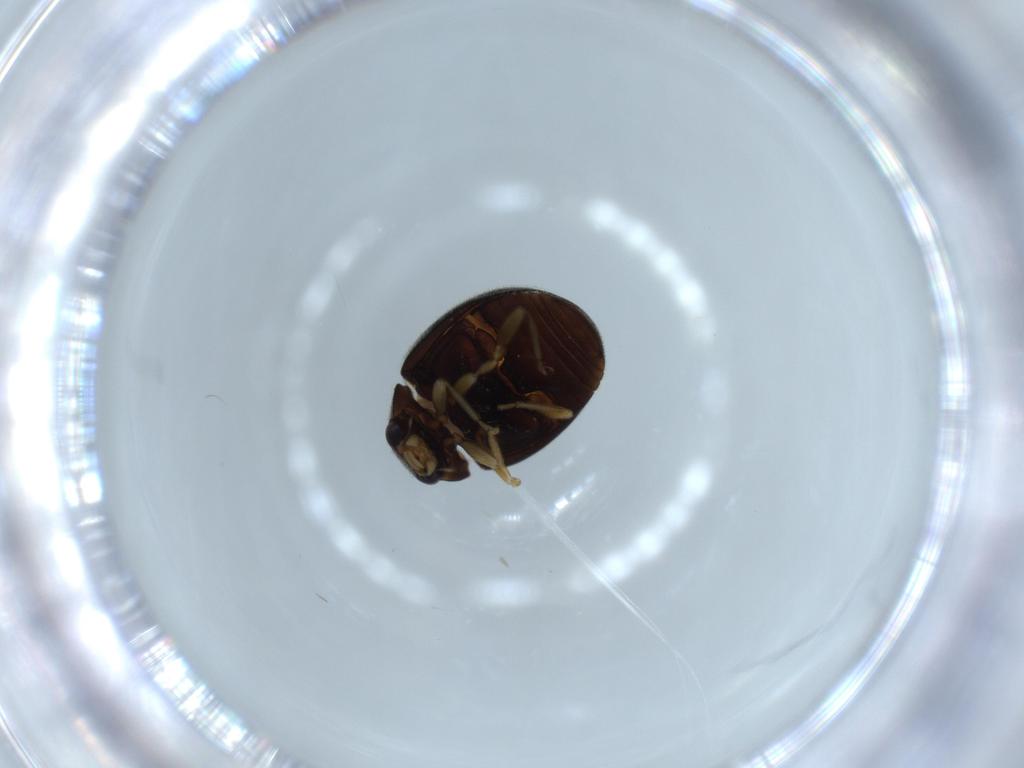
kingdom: Animalia
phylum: Arthropoda
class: Insecta
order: Coleoptera
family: Coccinellidae
